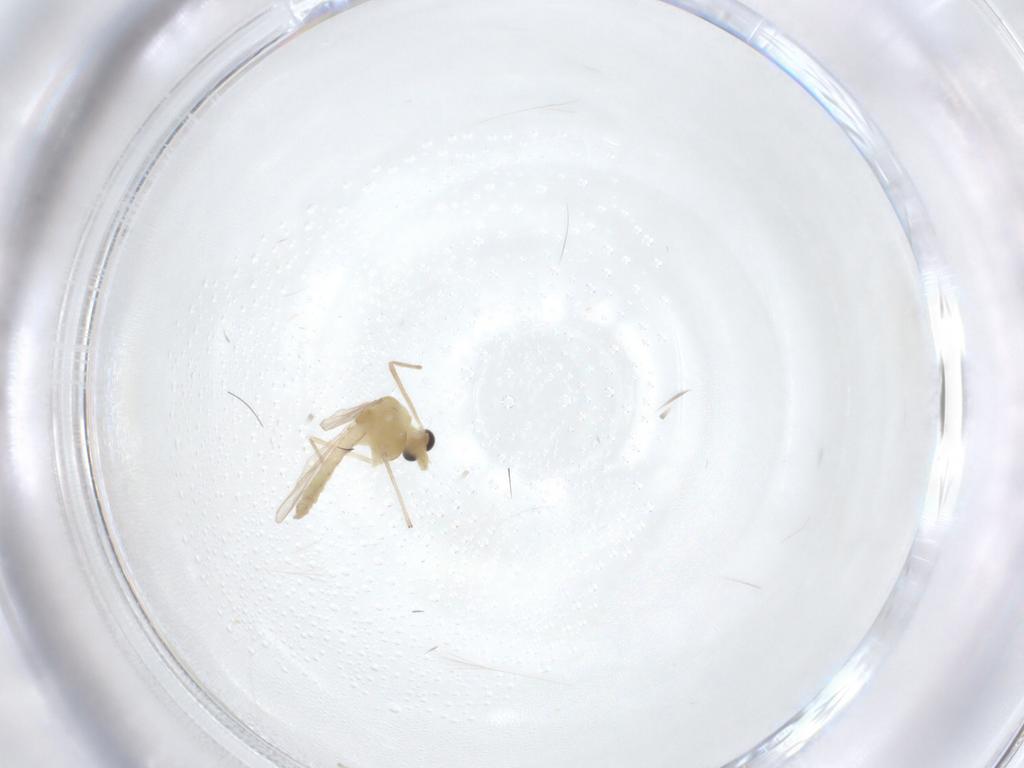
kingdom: Animalia
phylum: Arthropoda
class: Insecta
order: Diptera
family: Chironomidae
